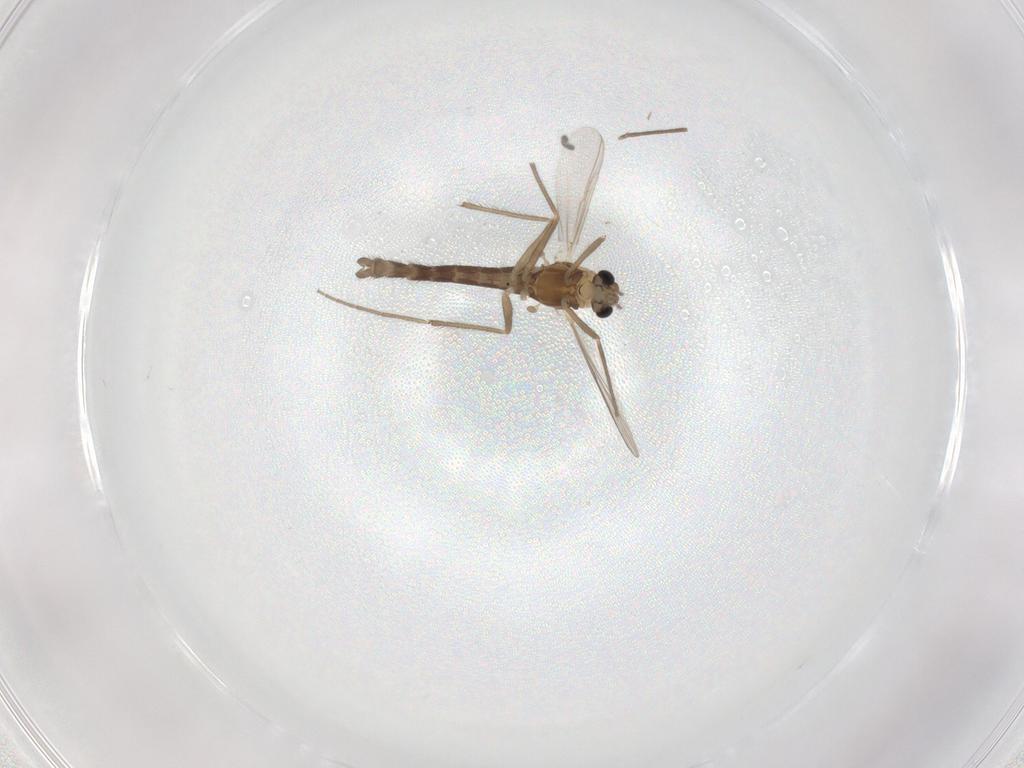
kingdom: Animalia
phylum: Arthropoda
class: Insecta
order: Diptera
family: Chironomidae
